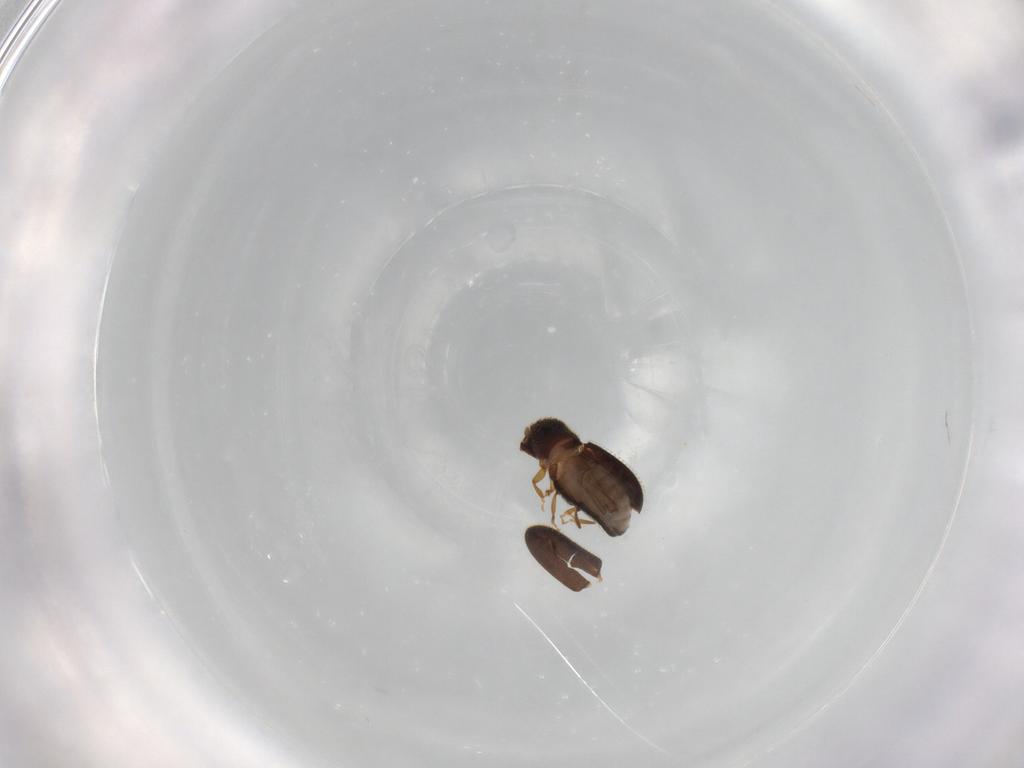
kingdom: Animalia
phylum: Arthropoda
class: Insecta
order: Coleoptera
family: Curculionidae
